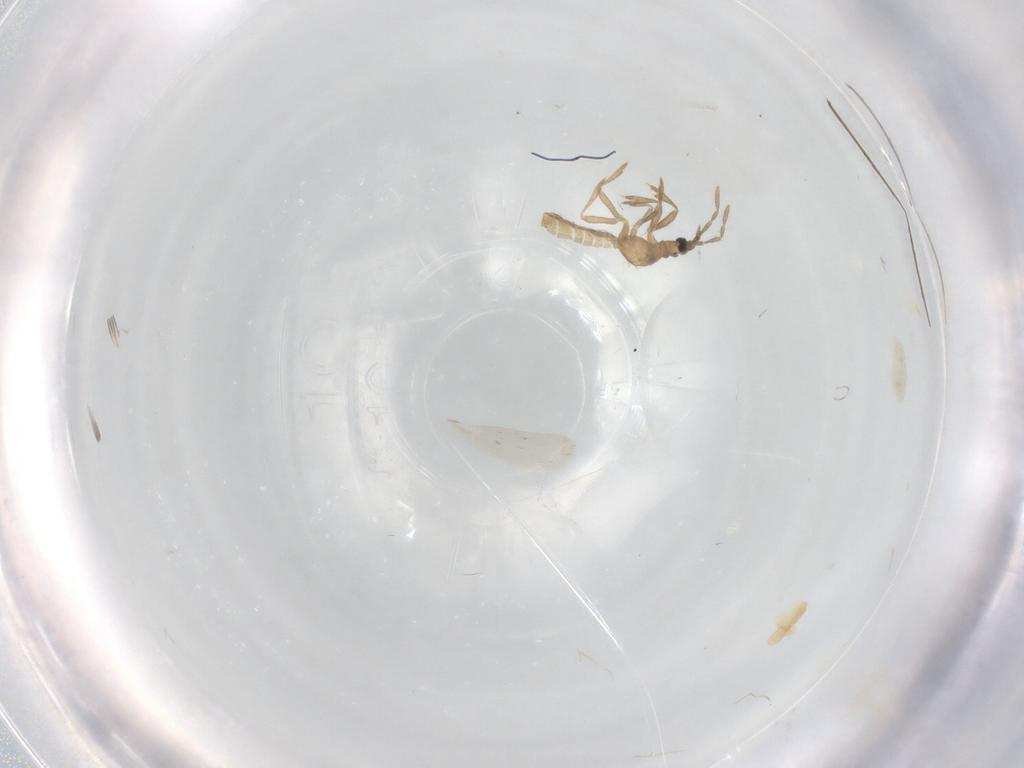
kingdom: Animalia
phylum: Arthropoda
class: Insecta
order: Hemiptera
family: Enicocephalidae
